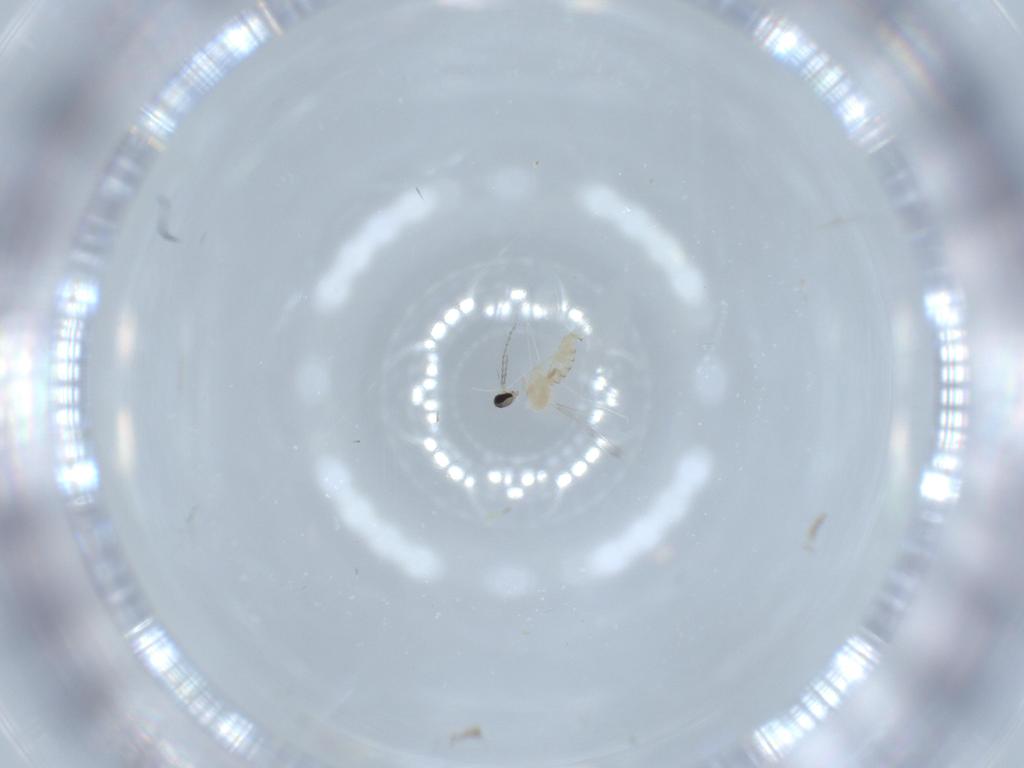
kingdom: Animalia
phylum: Arthropoda
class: Insecta
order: Diptera
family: Cecidomyiidae
